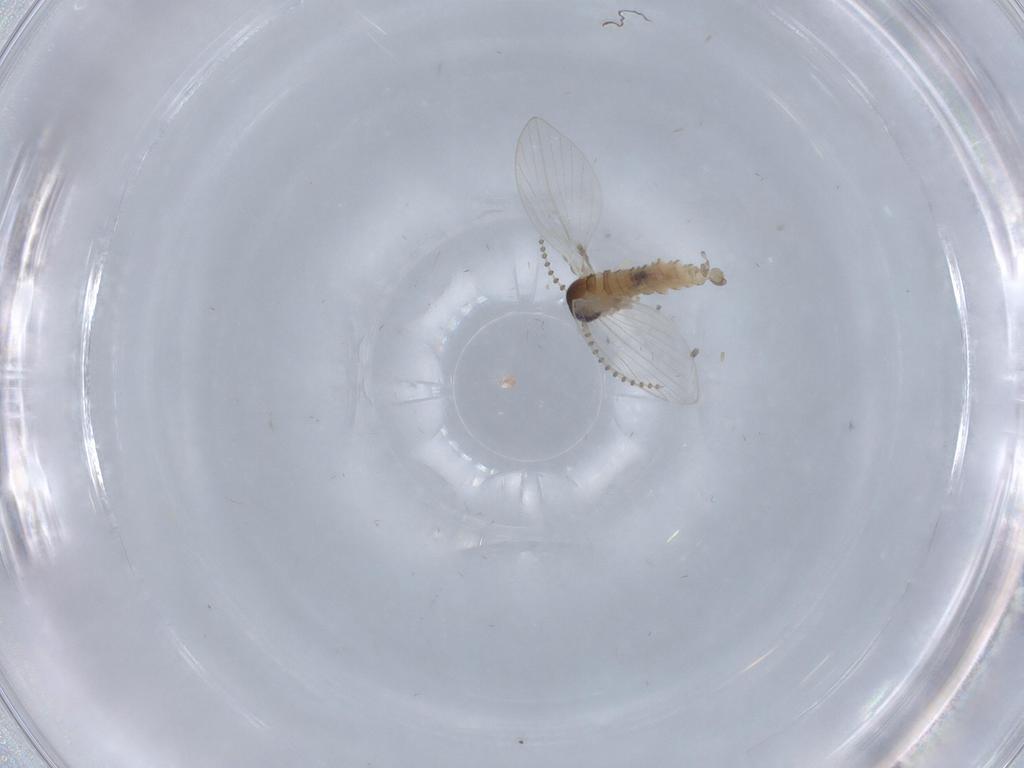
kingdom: Animalia
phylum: Arthropoda
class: Insecta
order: Diptera
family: Psychodidae
